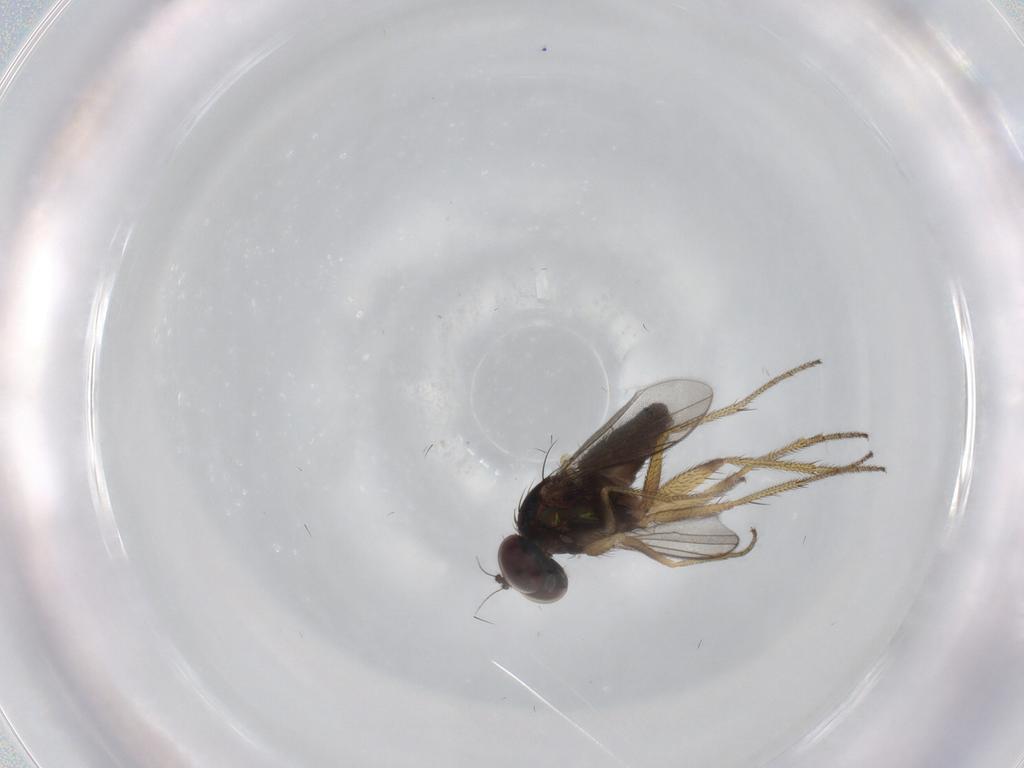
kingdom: Animalia
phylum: Arthropoda
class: Insecta
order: Diptera
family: Dolichopodidae
